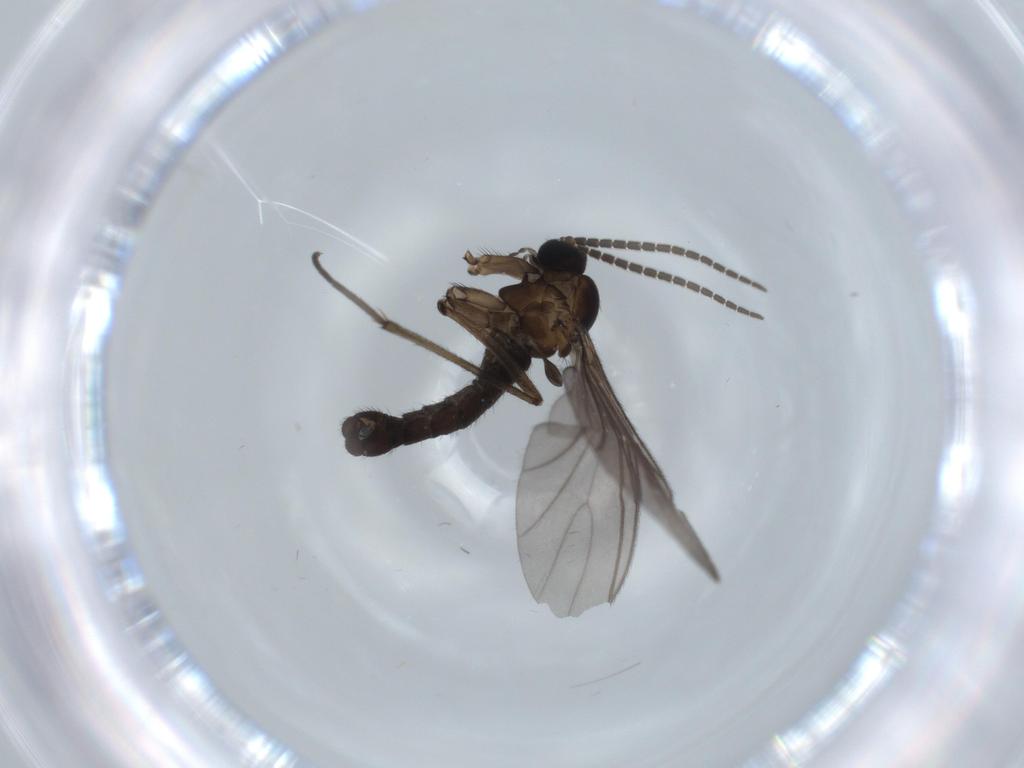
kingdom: Animalia
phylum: Arthropoda
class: Insecta
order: Diptera
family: Sciaridae
